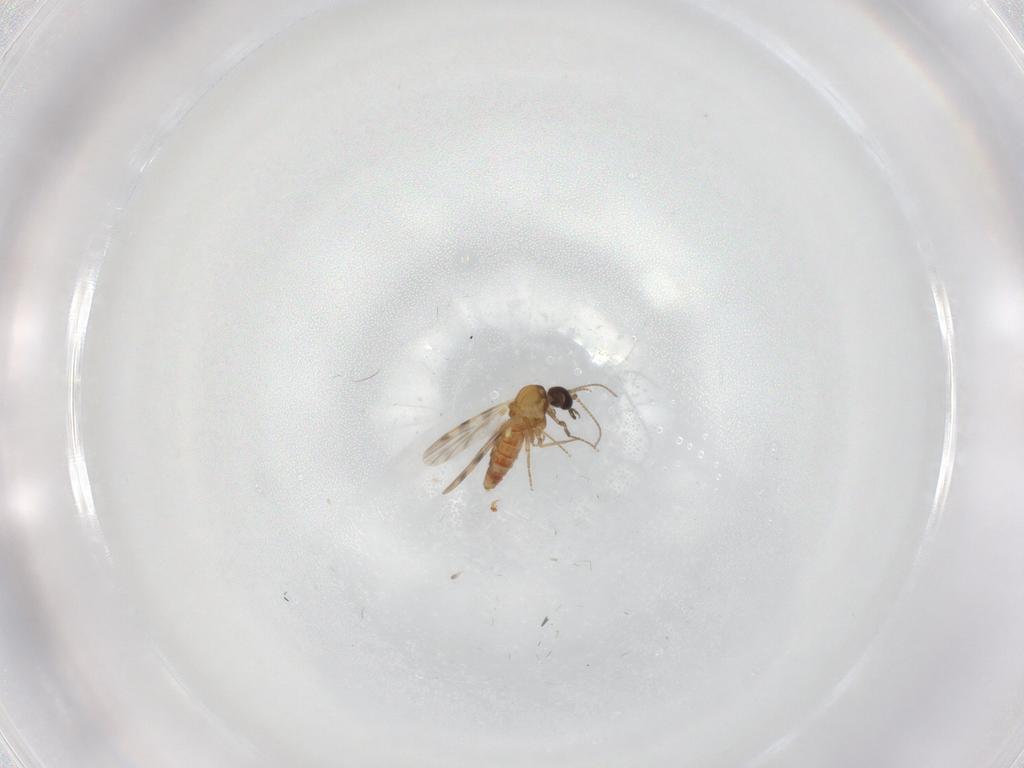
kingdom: Animalia
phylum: Arthropoda
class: Insecta
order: Diptera
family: Ceratopogonidae
